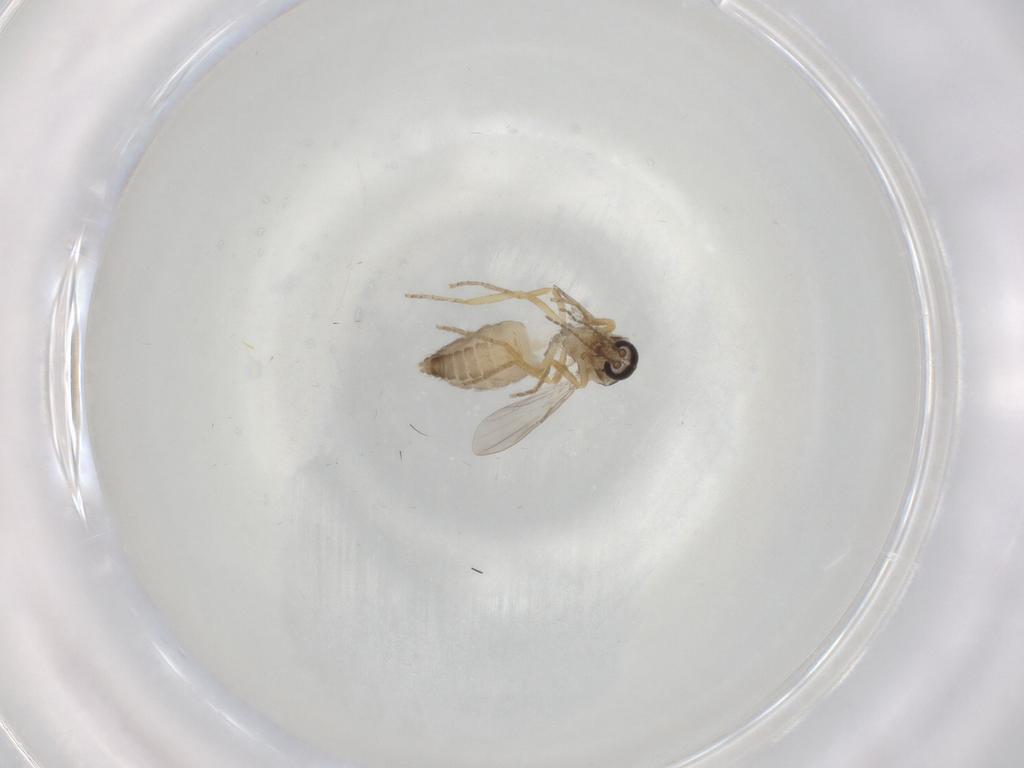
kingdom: Animalia
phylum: Arthropoda
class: Insecta
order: Diptera
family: Ceratopogonidae
